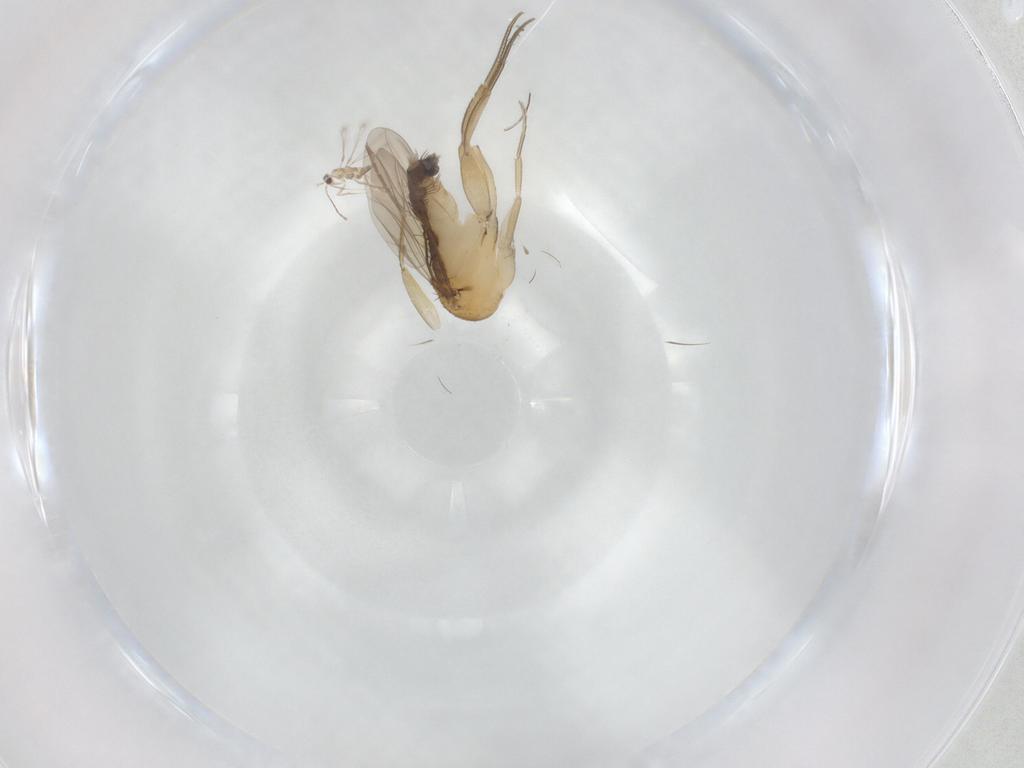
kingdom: Animalia
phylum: Arthropoda
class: Insecta
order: Diptera
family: Phoridae
